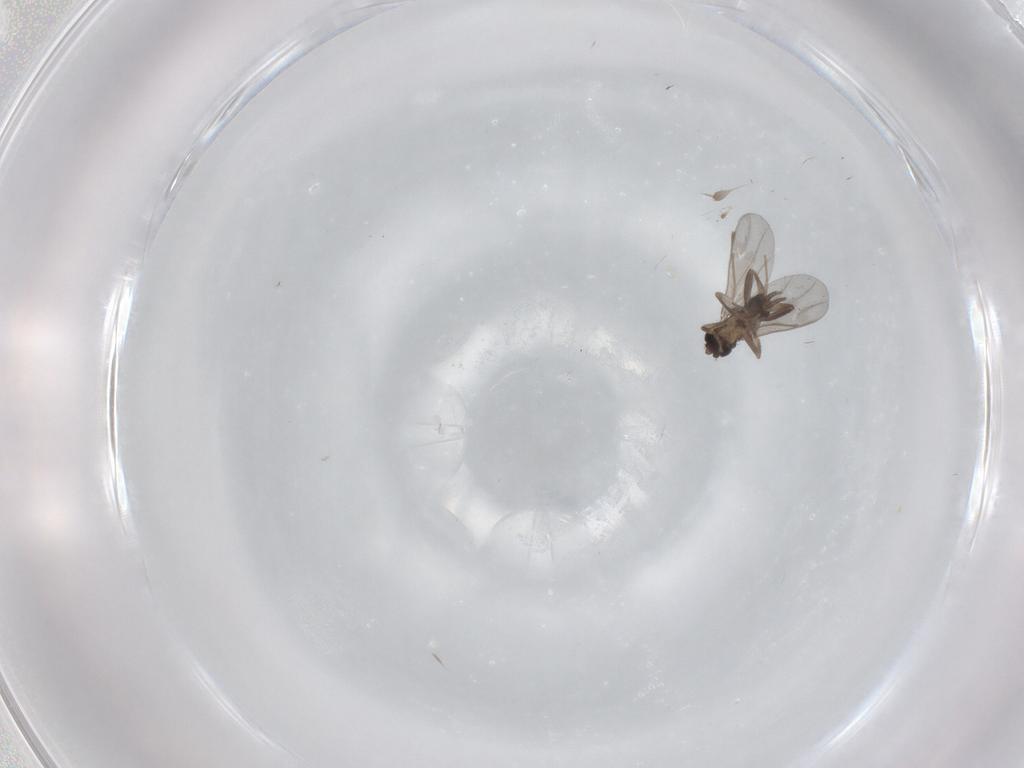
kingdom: Animalia
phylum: Arthropoda
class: Insecta
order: Diptera
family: Chironomidae
